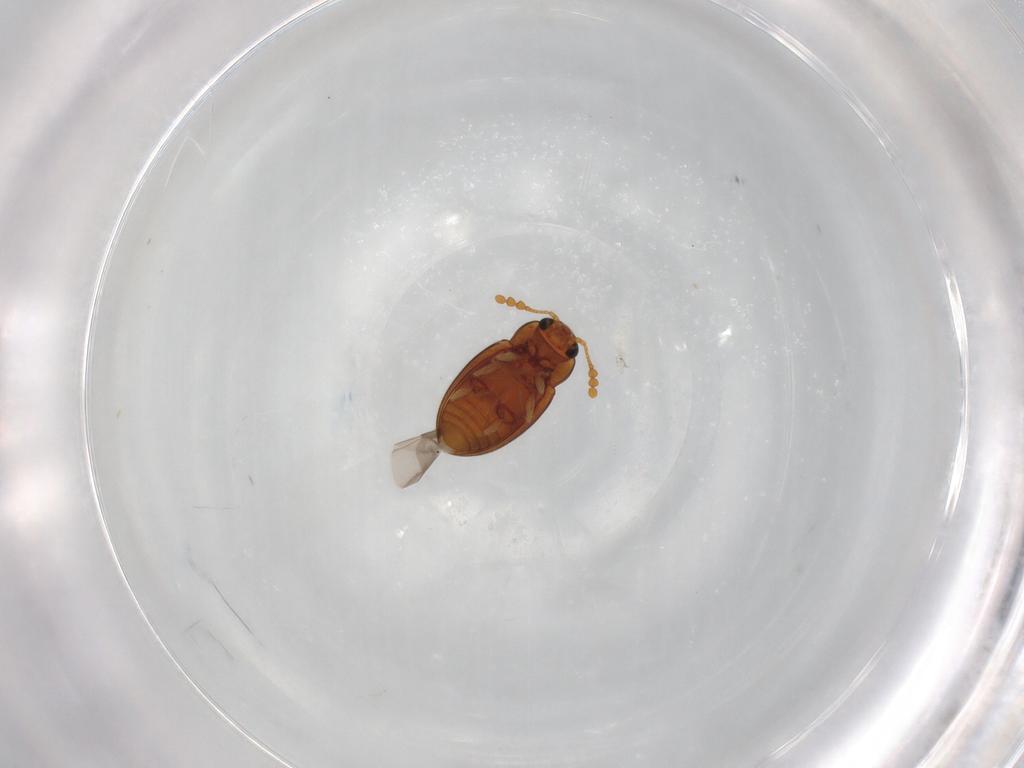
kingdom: Animalia
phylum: Arthropoda
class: Insecta
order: Coleoptera
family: Erotylidae
